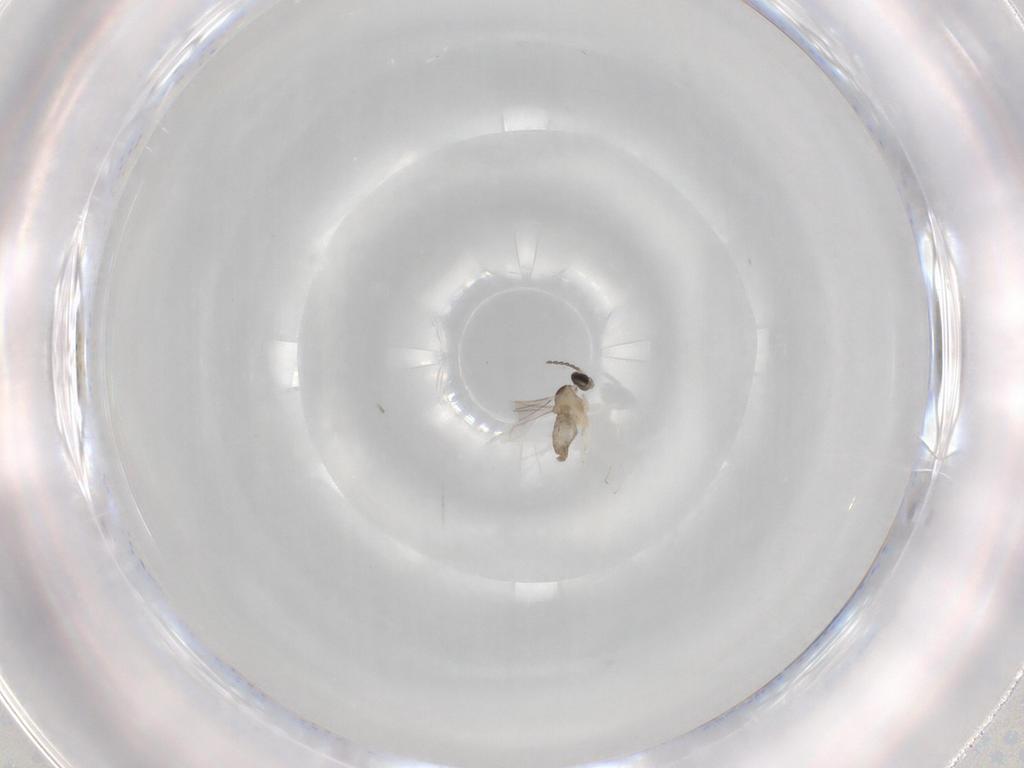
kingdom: Animalia
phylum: Arthropoda
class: Insecta
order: Diptera
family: Cecidomyiidae
